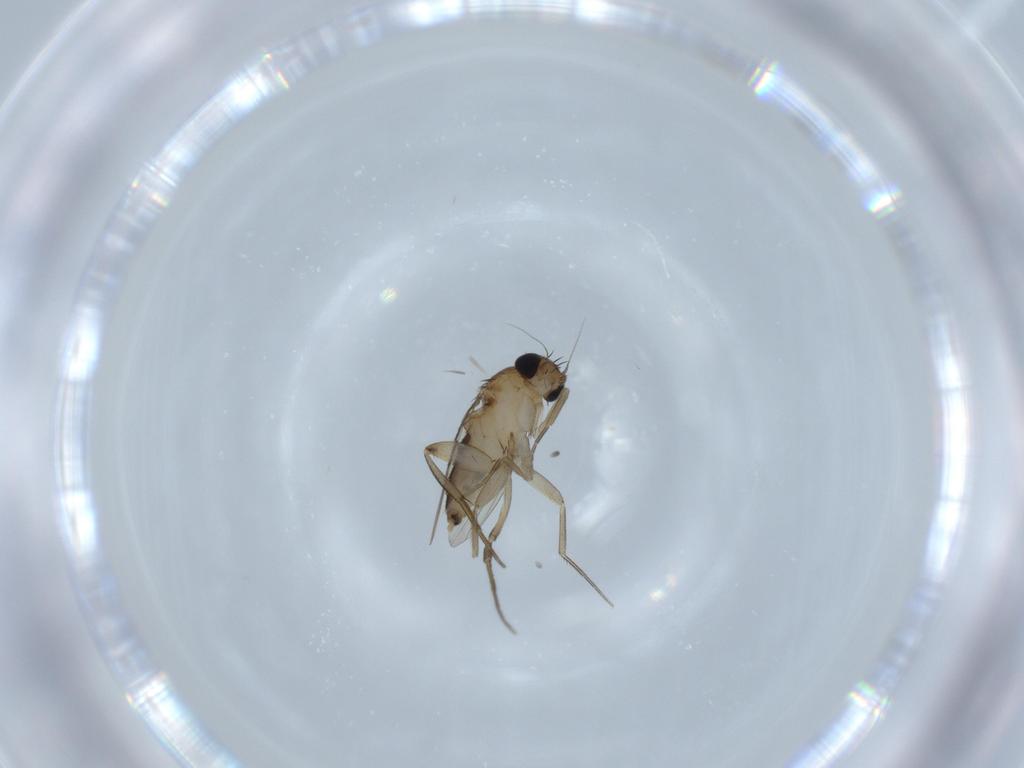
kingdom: Animalia
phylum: Arthropoda
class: Insecta
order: Diptera
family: Phoridae
